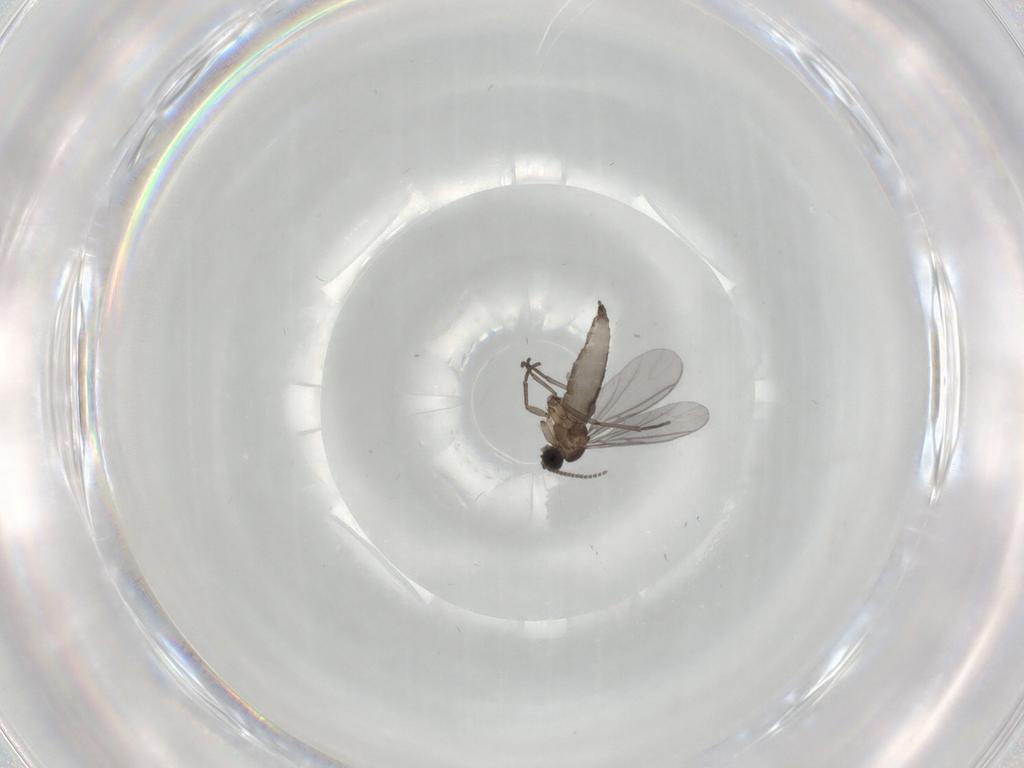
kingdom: Animalia
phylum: Arthropoda
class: Insecta
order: Diptera
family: Sciaridae
